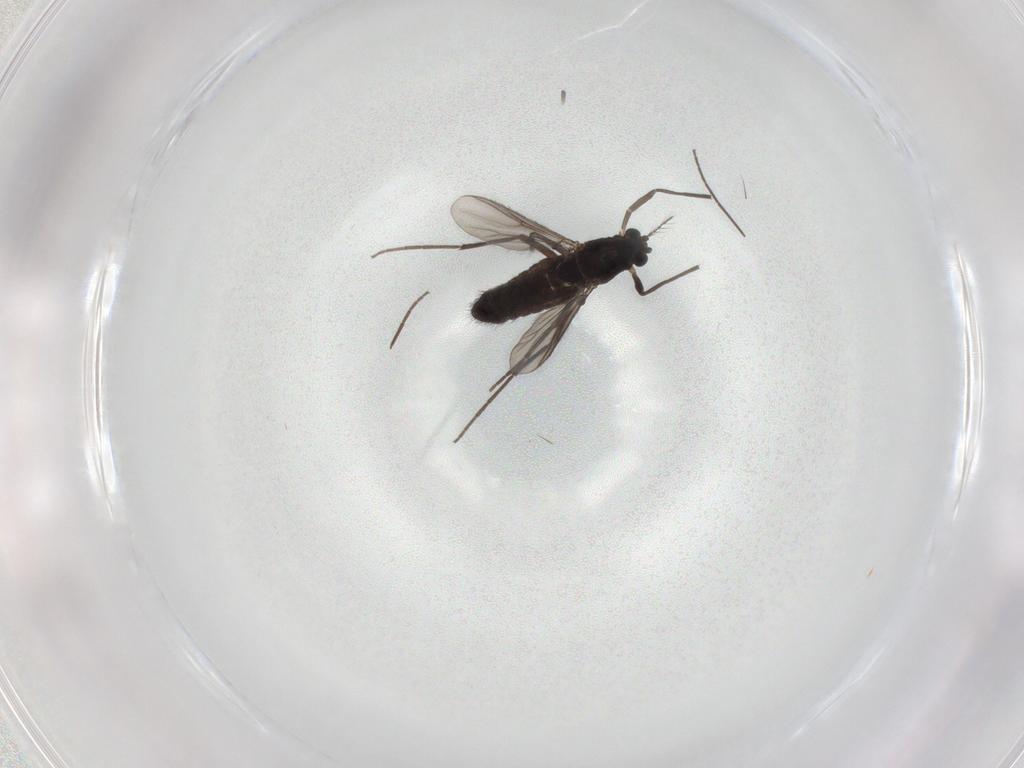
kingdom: Animalia
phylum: Arthropoda
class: Insecta
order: Diptera
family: Chironomidae
